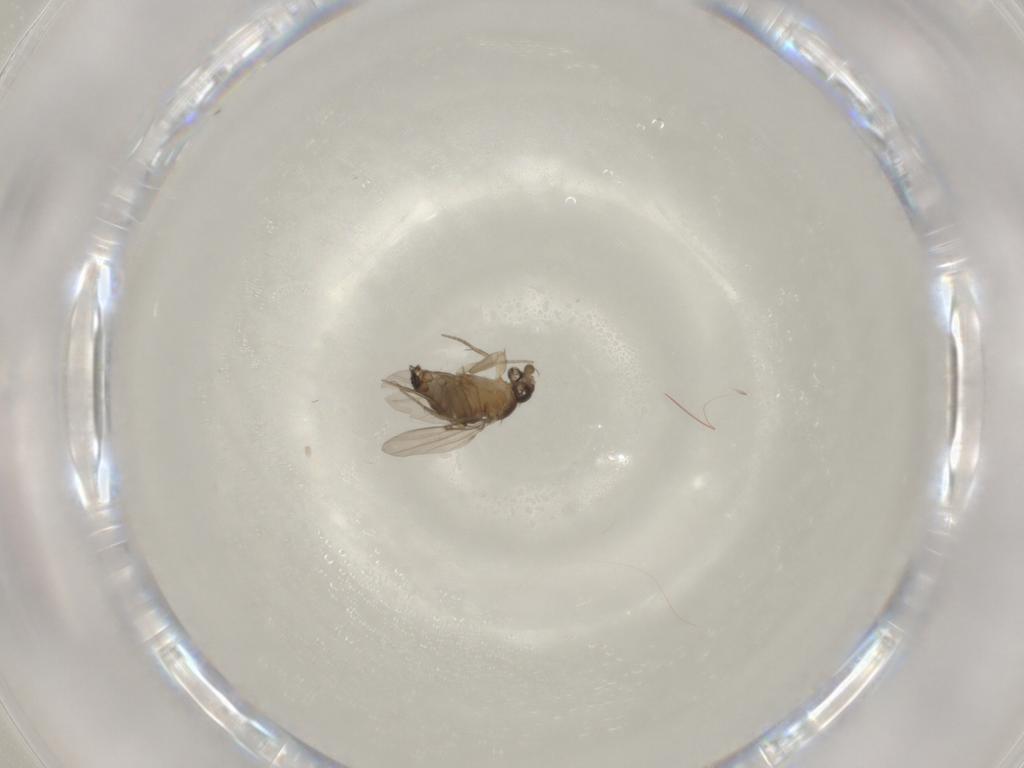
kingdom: Animalia
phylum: Arthropoda
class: Insecta
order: Diptera
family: Phoridae
